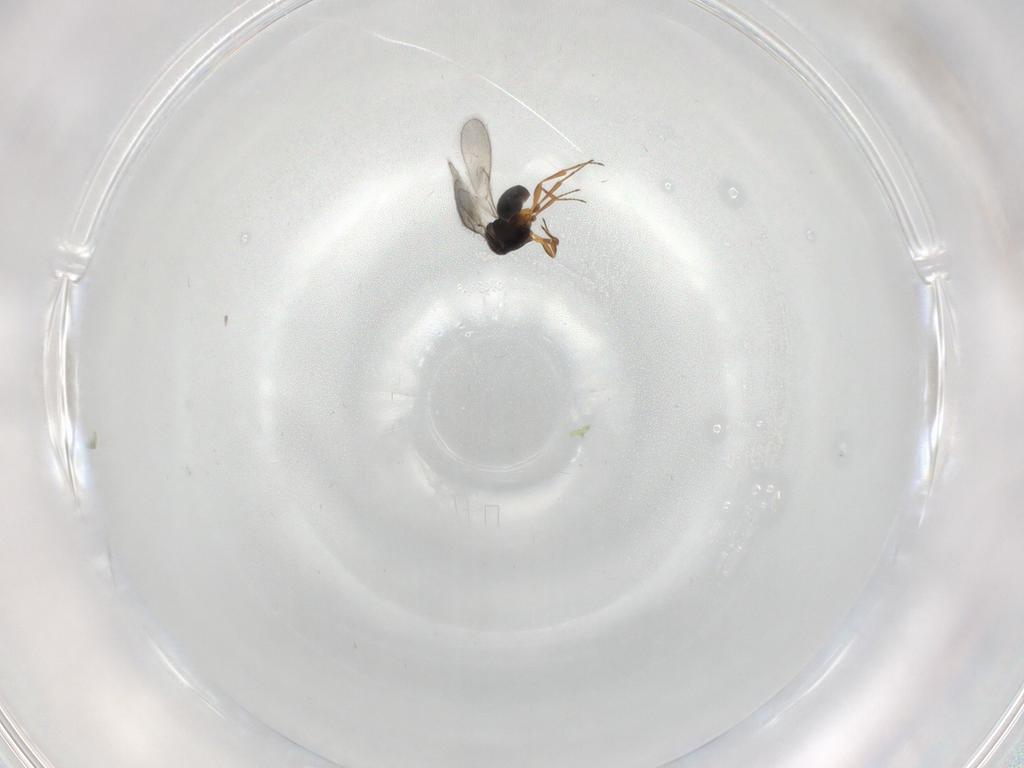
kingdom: Animalia
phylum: Arthropoda
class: Insecta
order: Hymenoptera
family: Scelionidae
